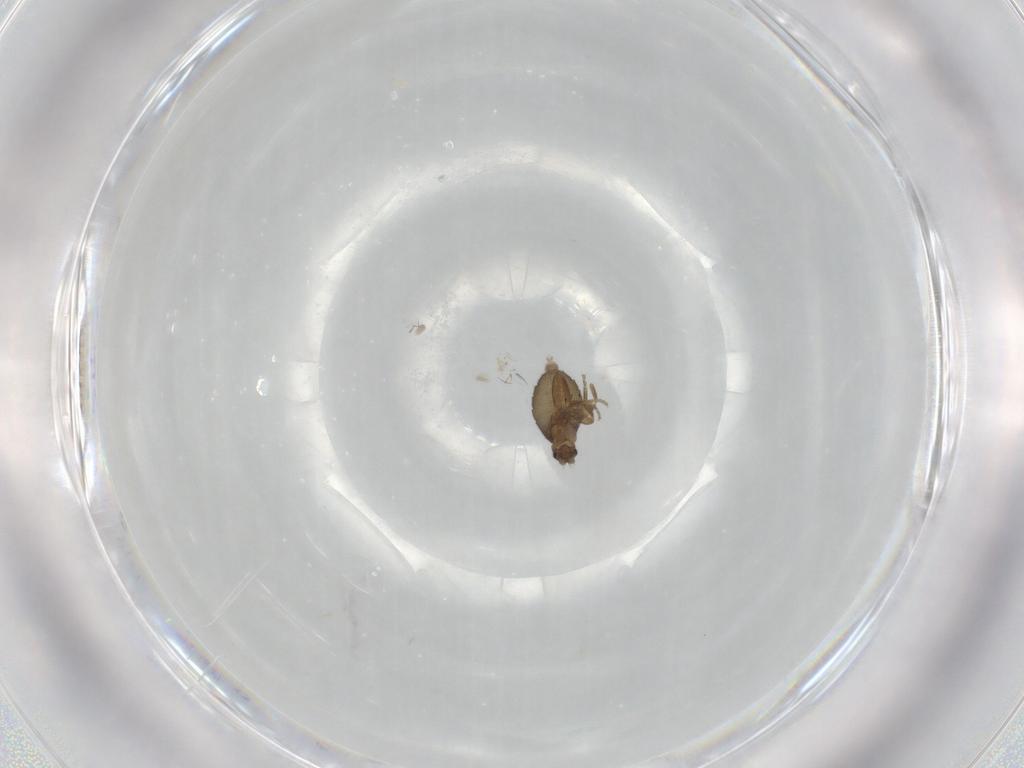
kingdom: Animalia
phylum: Arthropoda
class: Insecta
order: Diptera
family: Psychodidae
